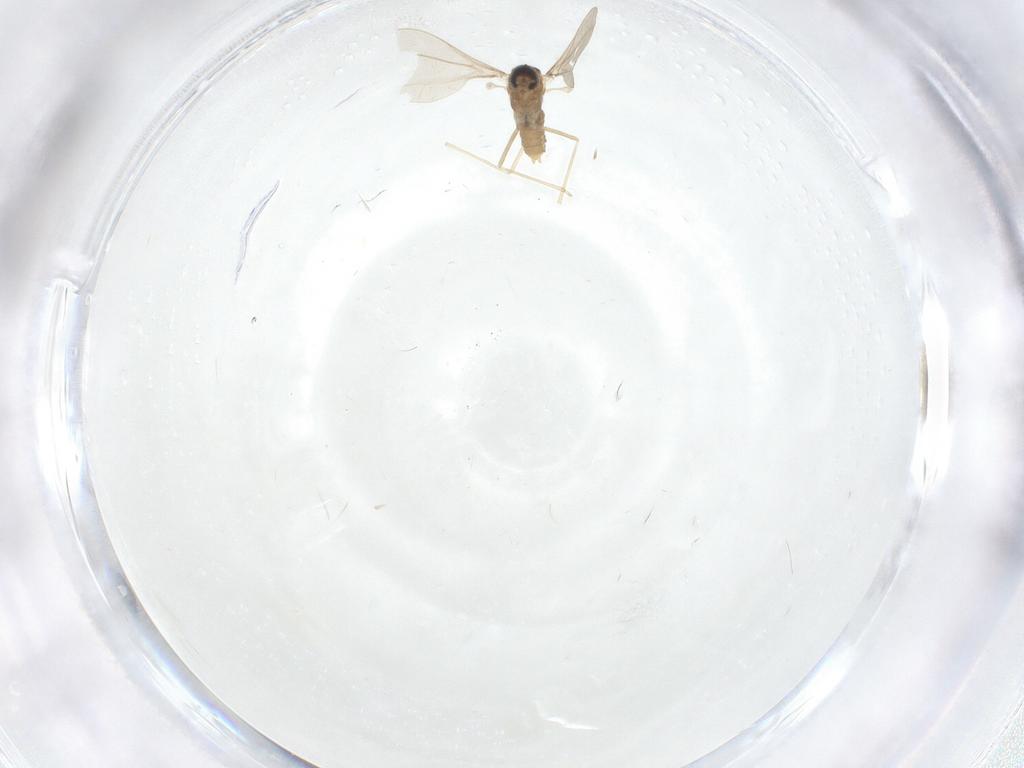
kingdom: Animalia
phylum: Arthropoda
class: Insecta
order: Diptera
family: Cecidomyiidae
